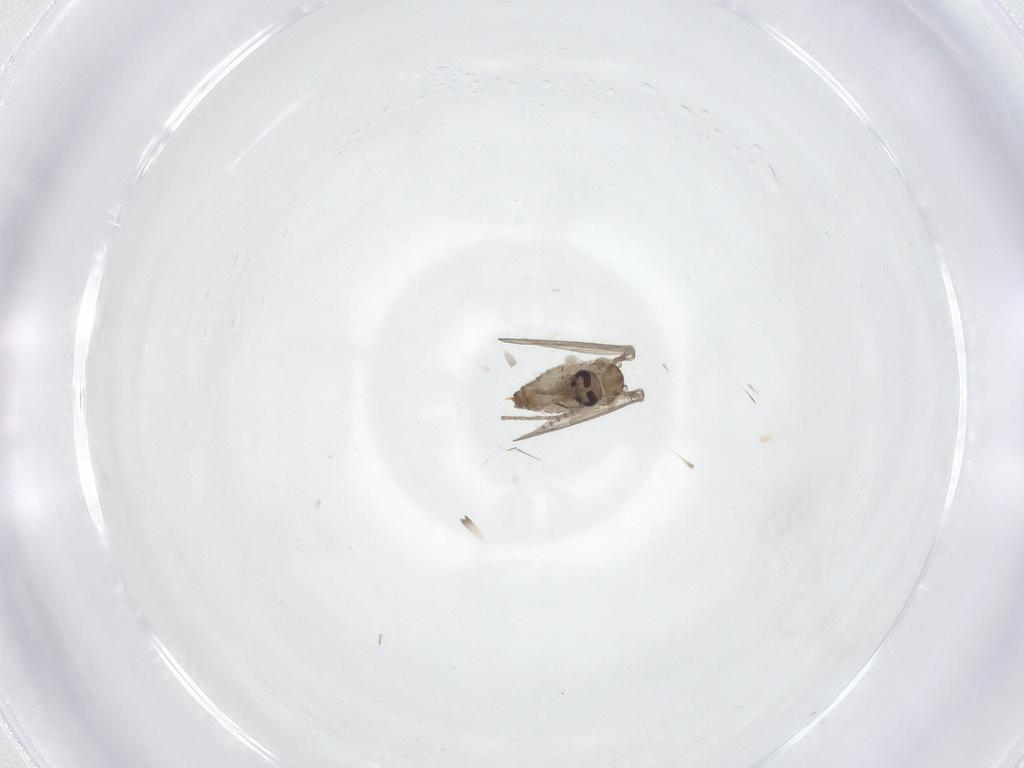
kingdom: Animalia
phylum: Arthropoda
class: Insecta
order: Diptera
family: Psychodidae
